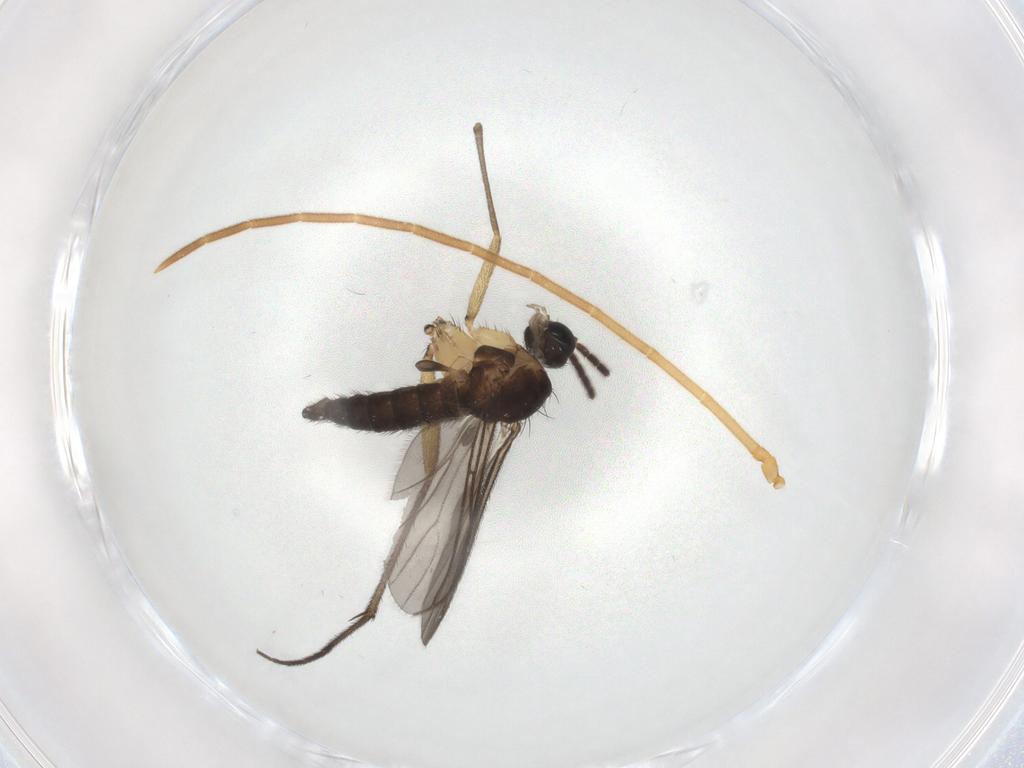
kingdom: Animalia
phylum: Arthropoda
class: Insecta
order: Diptera
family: Sciaridae
